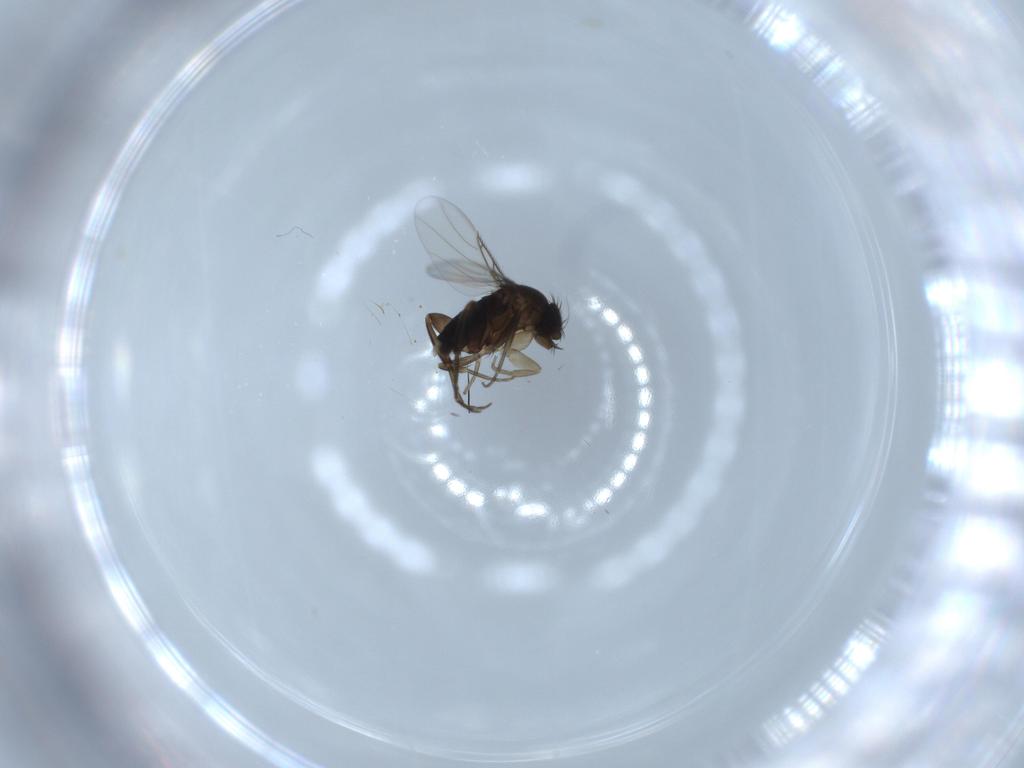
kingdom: Animalia
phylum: Arthropoda
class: Insecta
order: Diptera
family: Phoridae
